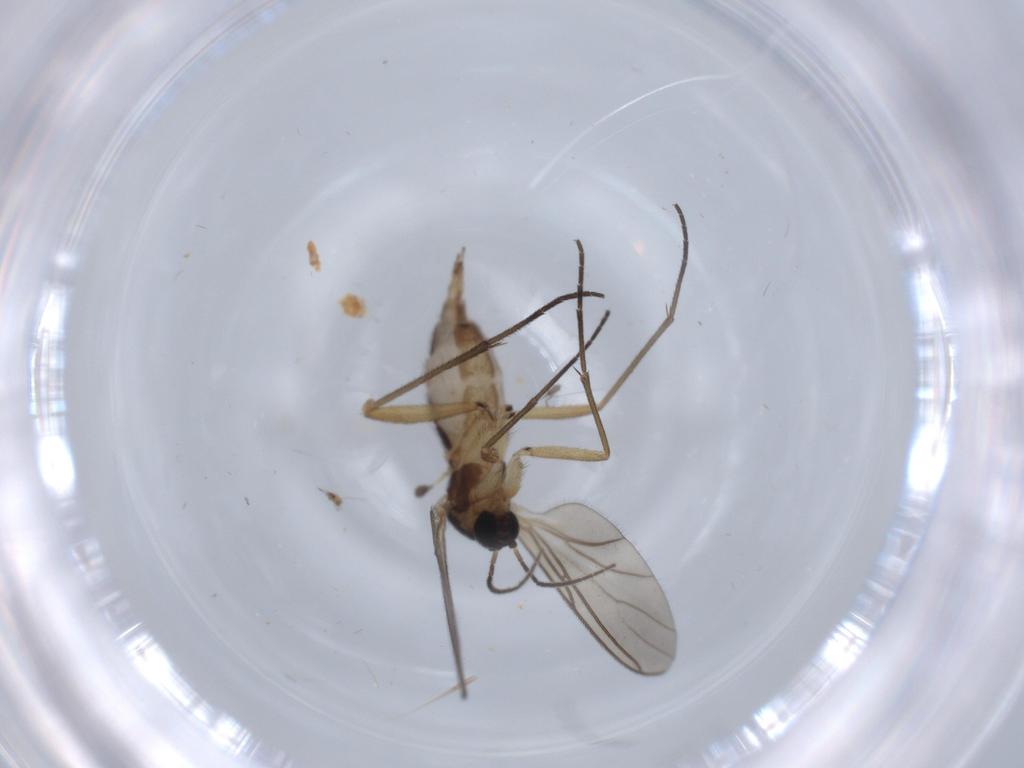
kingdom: Animalia
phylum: Arthropoda
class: Insecta
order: Diptera
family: Sciaridae
